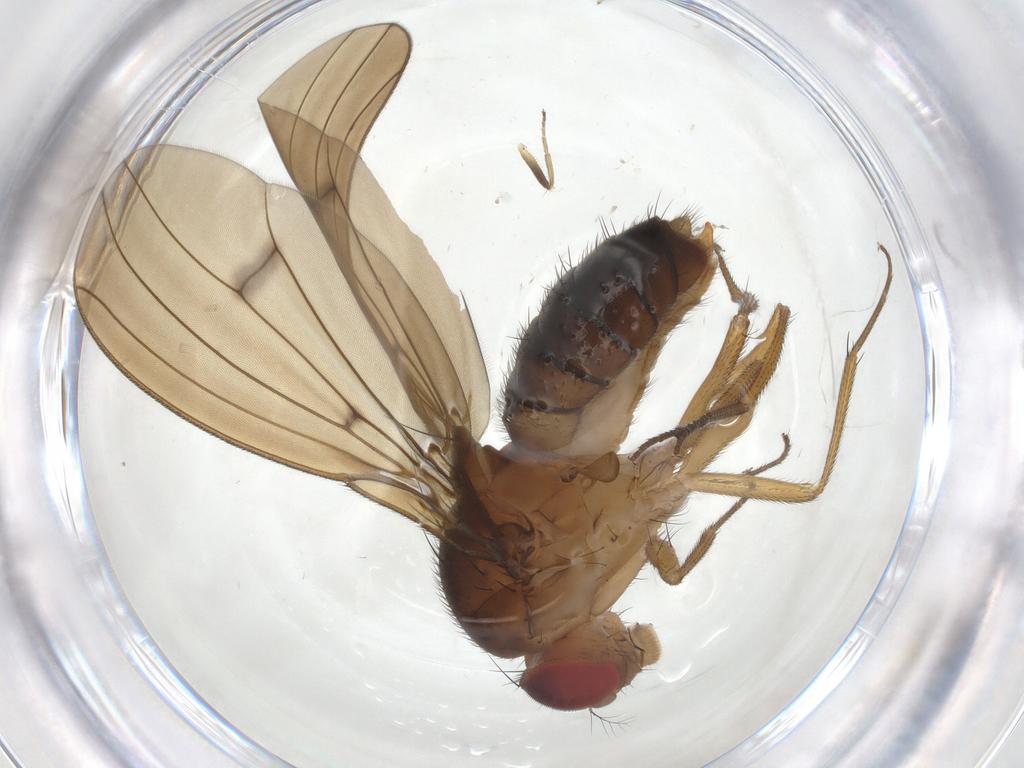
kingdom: Animalia
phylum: Arthropoda
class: Insecta
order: Diptera
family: Drosophilidae
